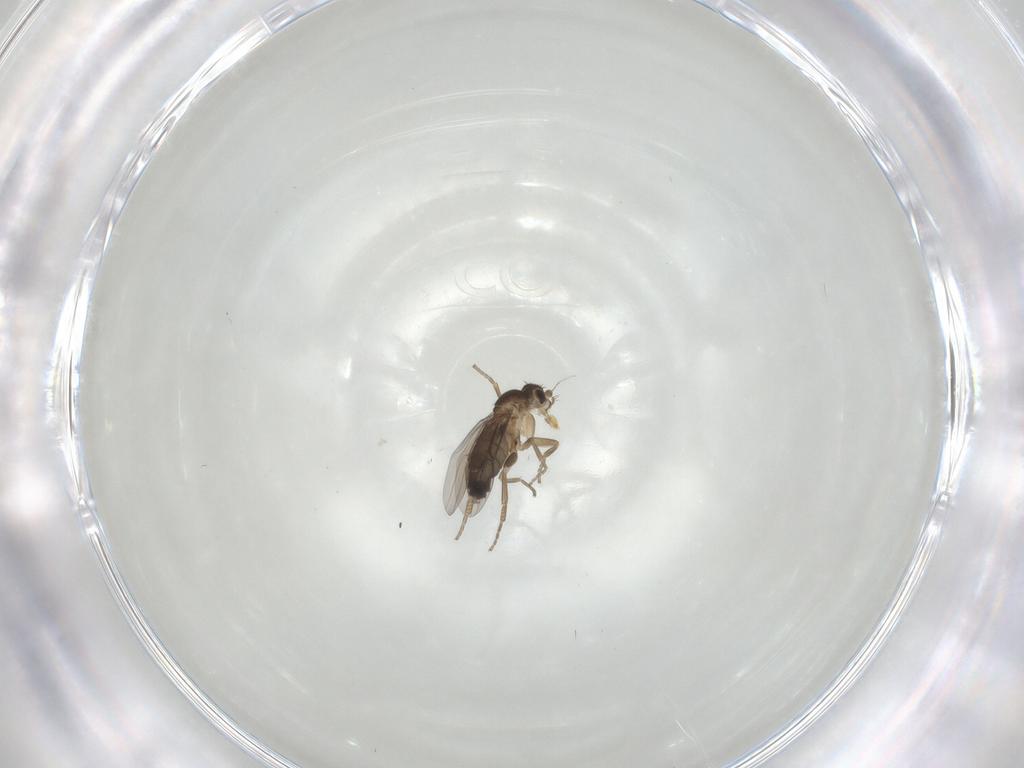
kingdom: Animalia
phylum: Arthropoda
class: Insecta
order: Diptera
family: Phoridae
